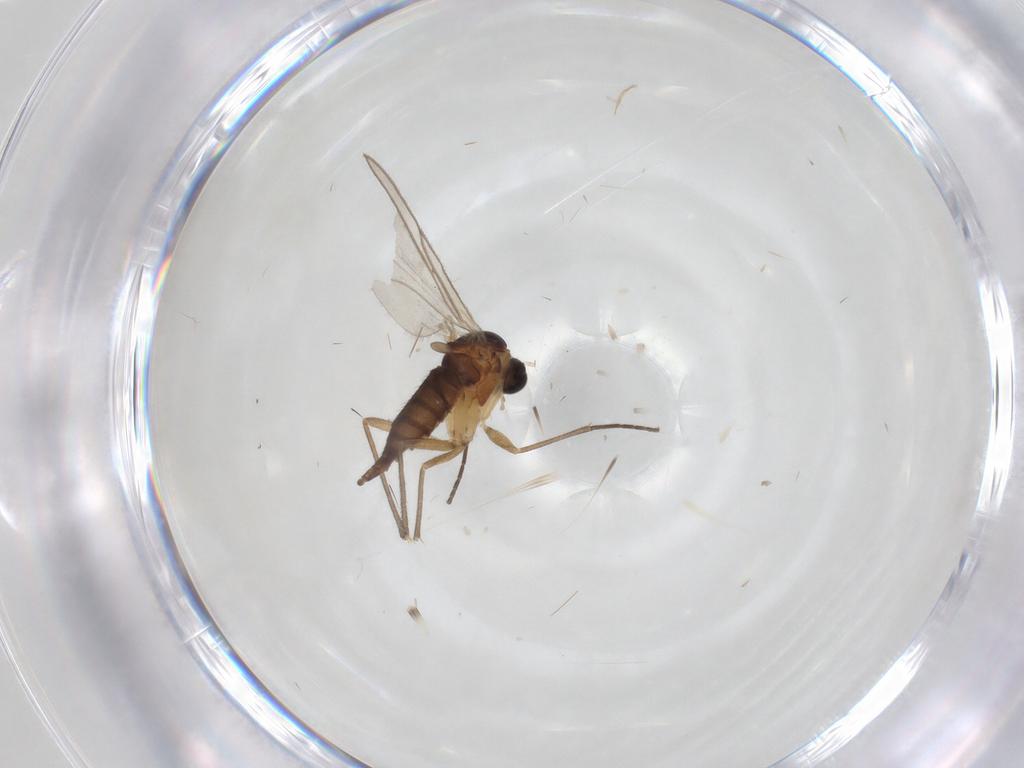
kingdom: Animalia
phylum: Arthropoda
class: Insecta
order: Diptera
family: Sciaridae
